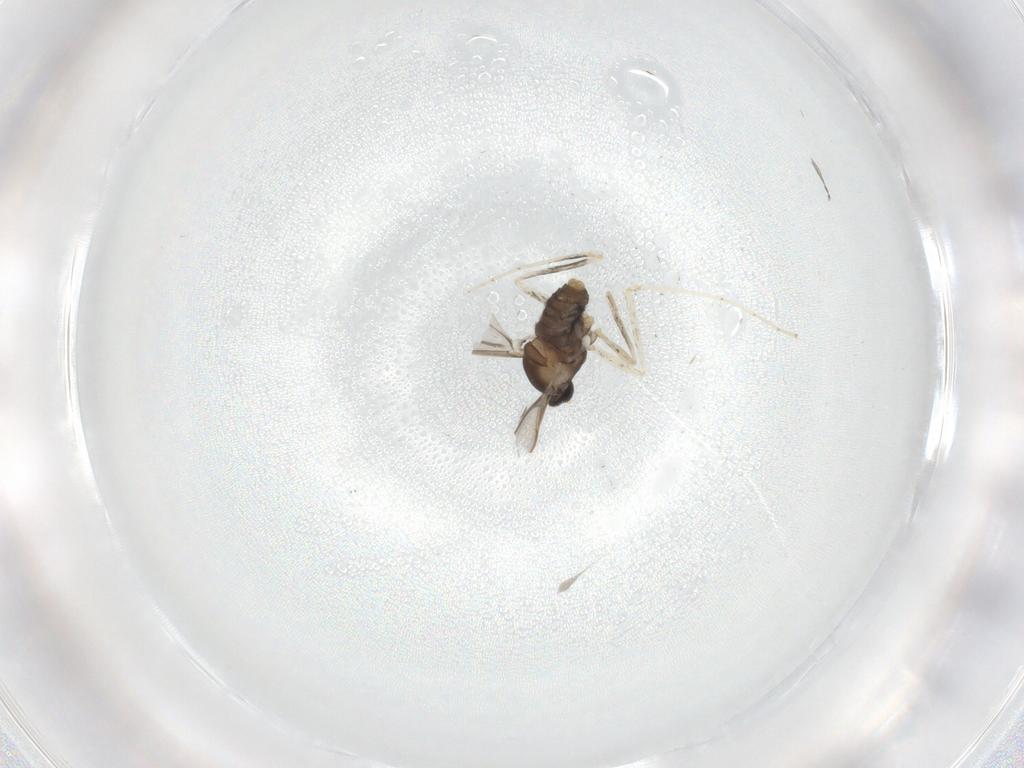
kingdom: Animalia
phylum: Arthropoda
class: Insecta
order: Diptera
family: Cecidomyiidae
